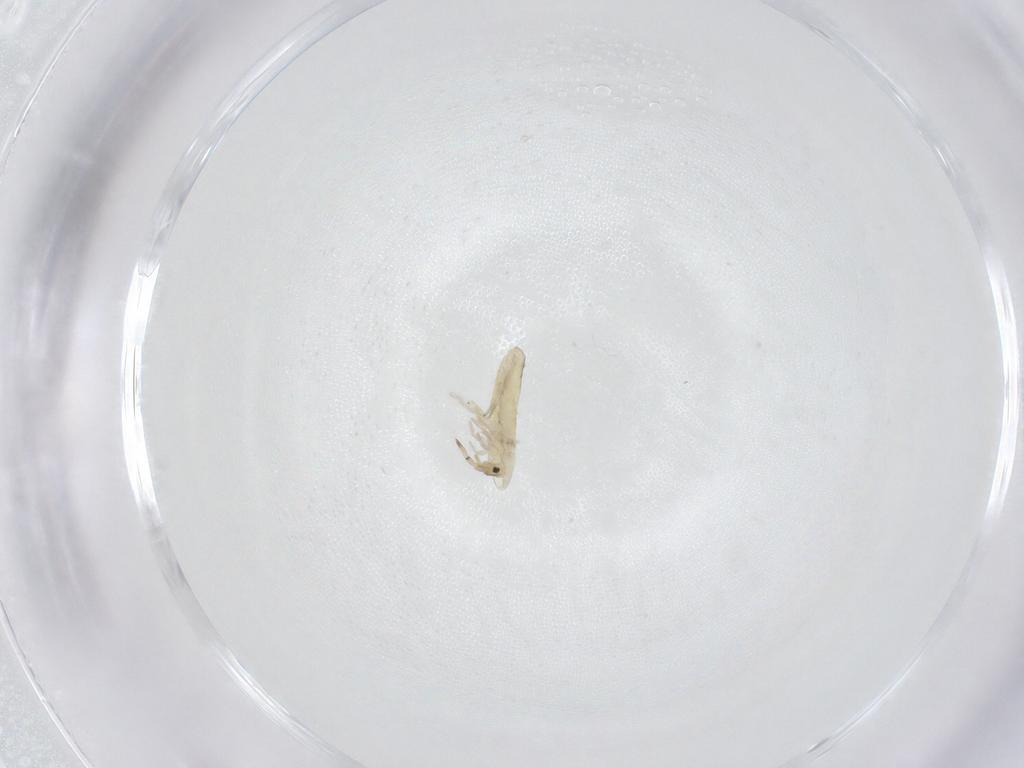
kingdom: Animalia
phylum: Arthropoda
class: Collembola
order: Entomobryomorpha
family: Entomobryidae
